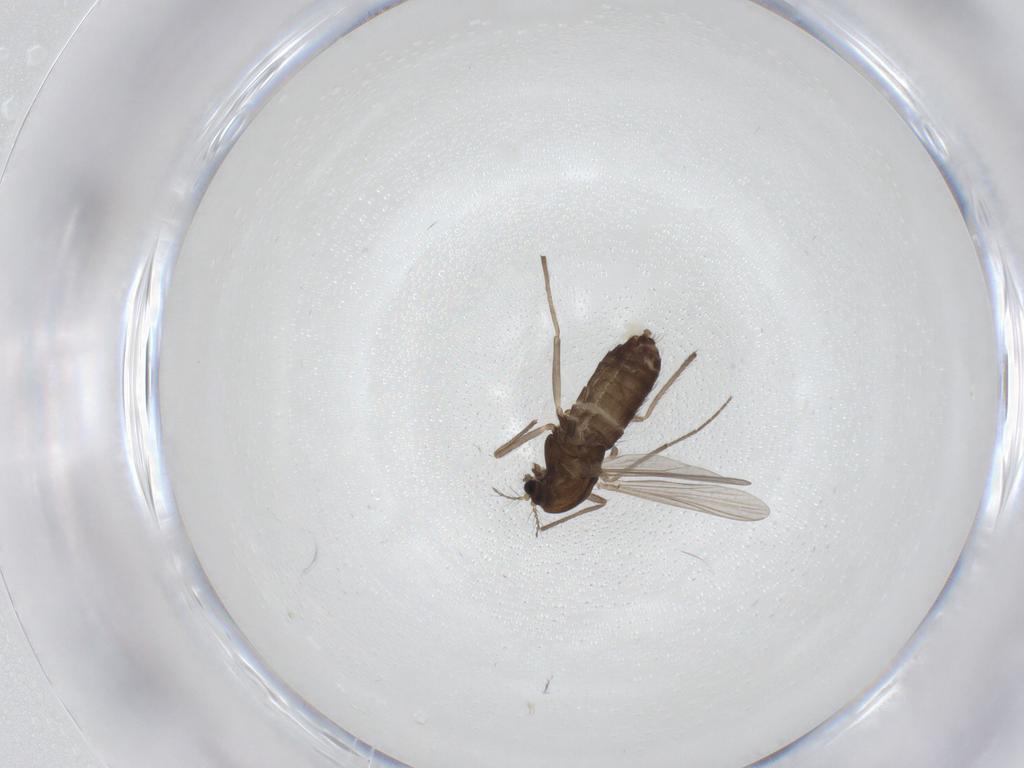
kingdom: Animalia
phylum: Arthropoda
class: Insecta
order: Diptera
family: Chironomidae
